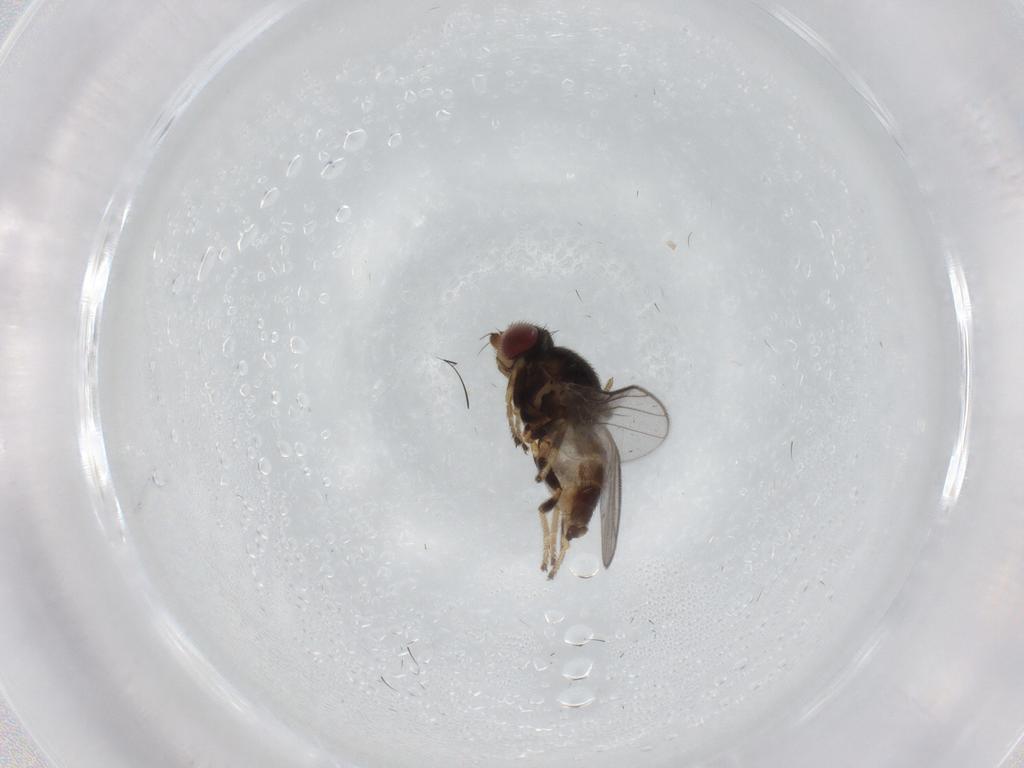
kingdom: Animalia
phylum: Arthropoda
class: Insecta
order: Diptera
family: Chloropidae
